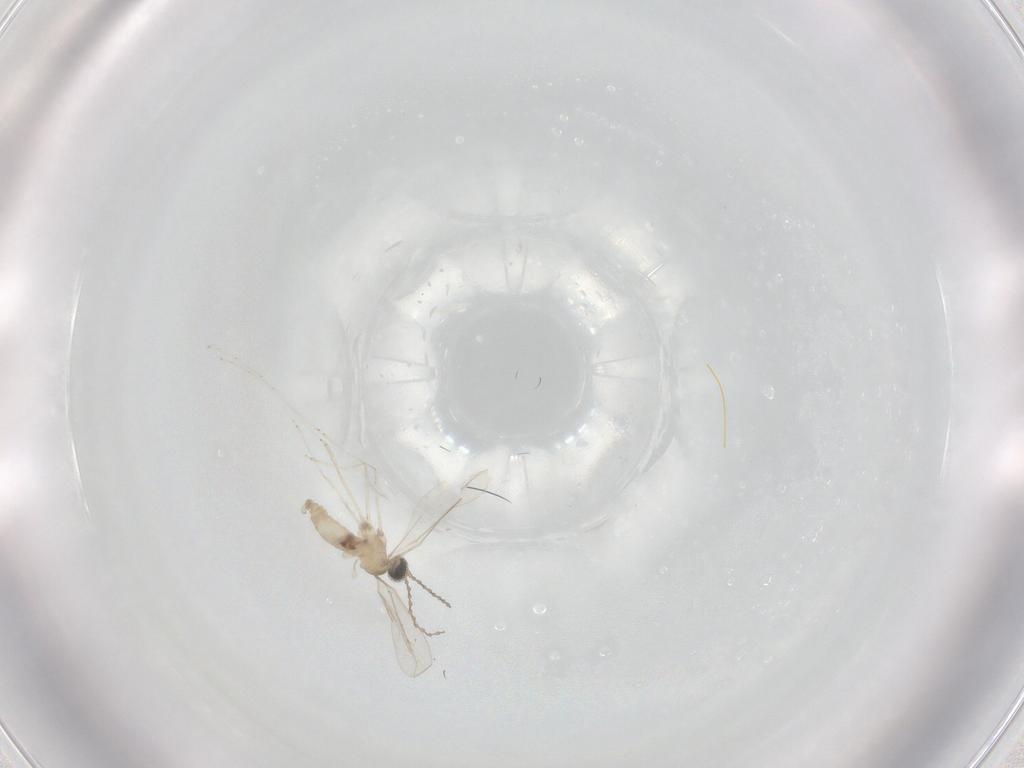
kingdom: Animalia
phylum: Arthropoda
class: Insecta
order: Diptera
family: Cecidomyiidae
